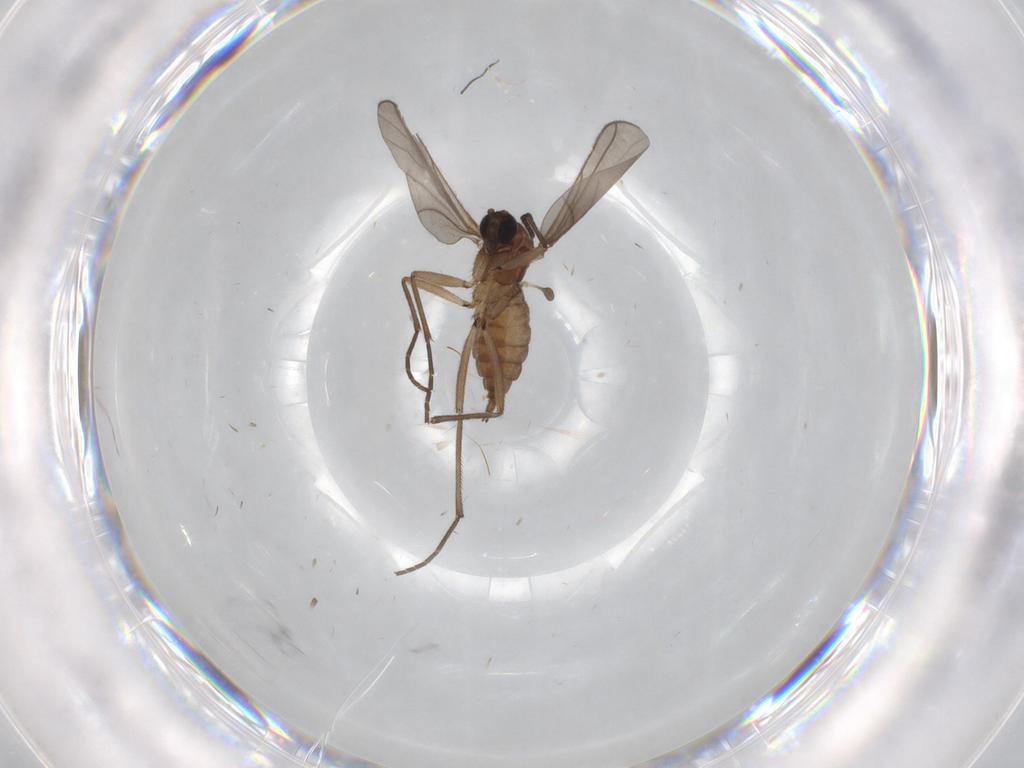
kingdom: Animalia
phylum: Arthropoda
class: Insecta
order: Diptera
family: Sciaridae
